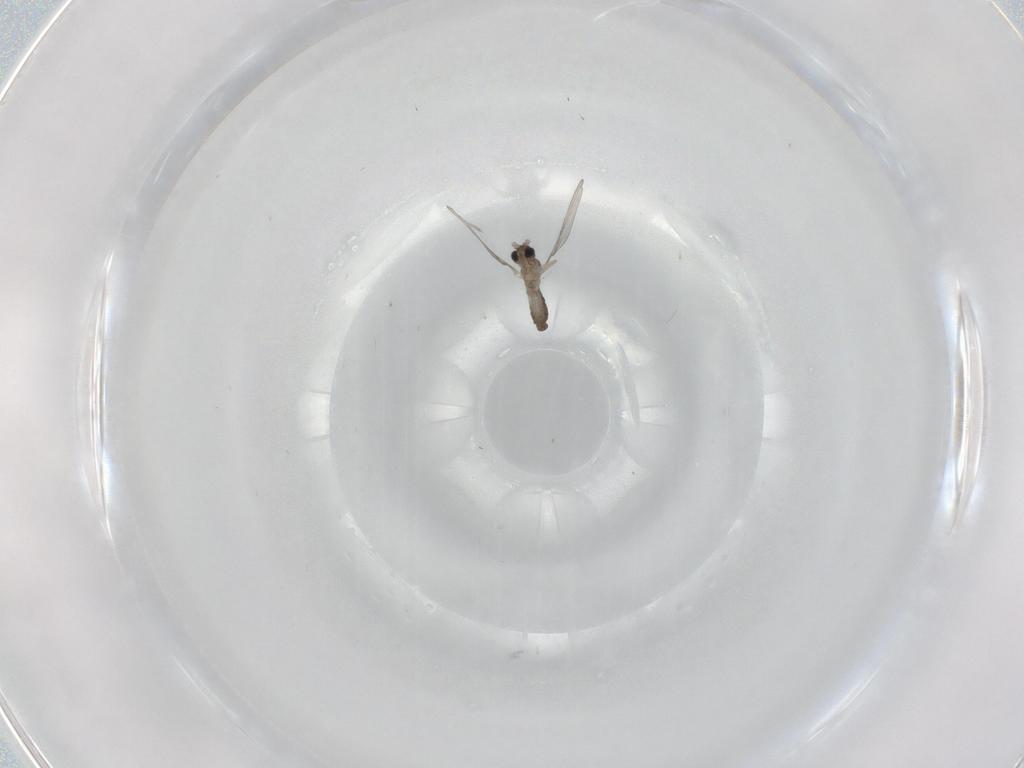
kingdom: Animalia
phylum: Arthropoda
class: Insecta
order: Diptera
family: Cecidomyiidae
